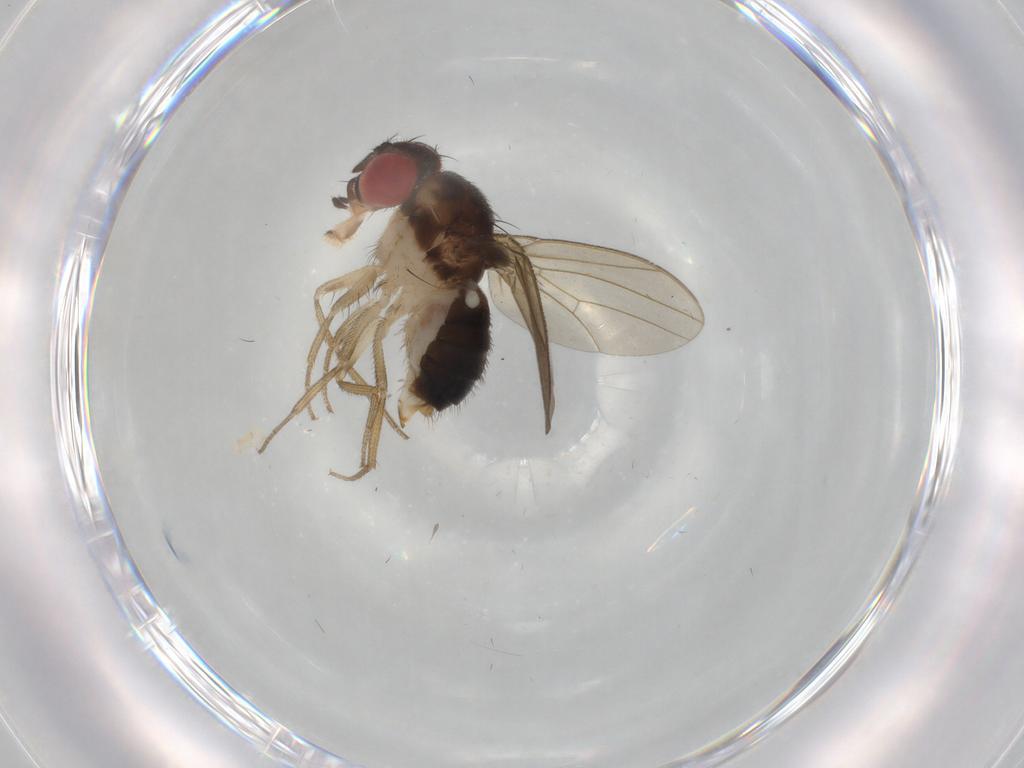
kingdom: Animalia
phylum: Arthropoda
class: Insecta
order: Diptera
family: Drosophilidae
